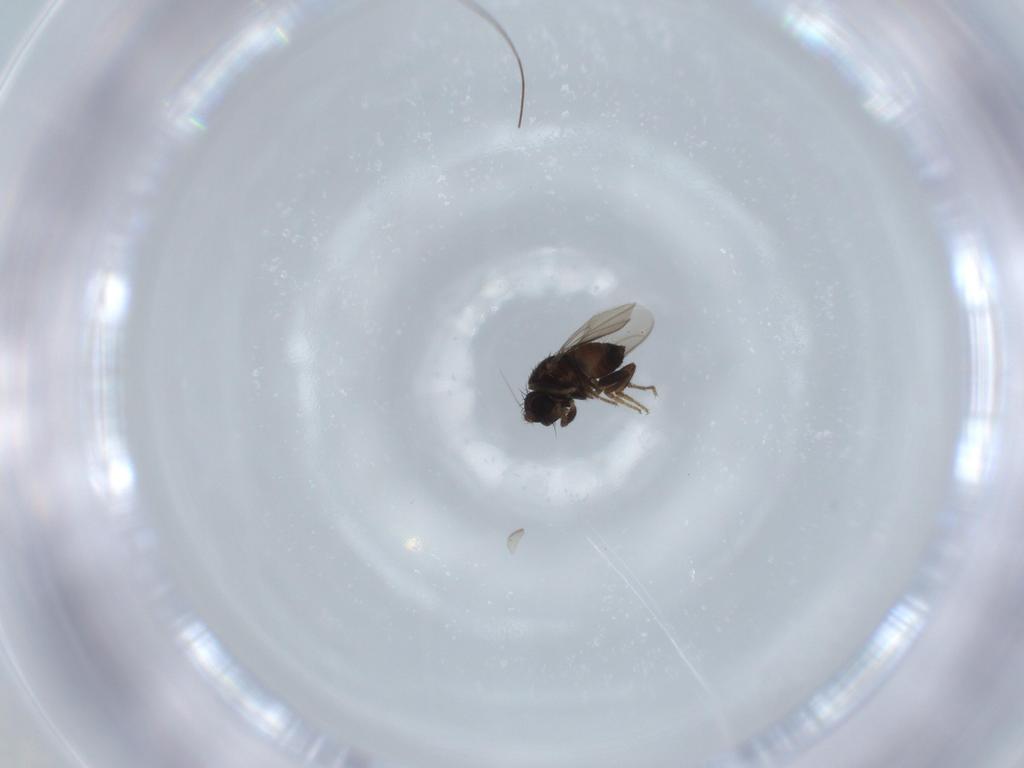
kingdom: Animalia
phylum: Arthropoda
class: Insecta
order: Diptera
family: Sphaeroceridae
